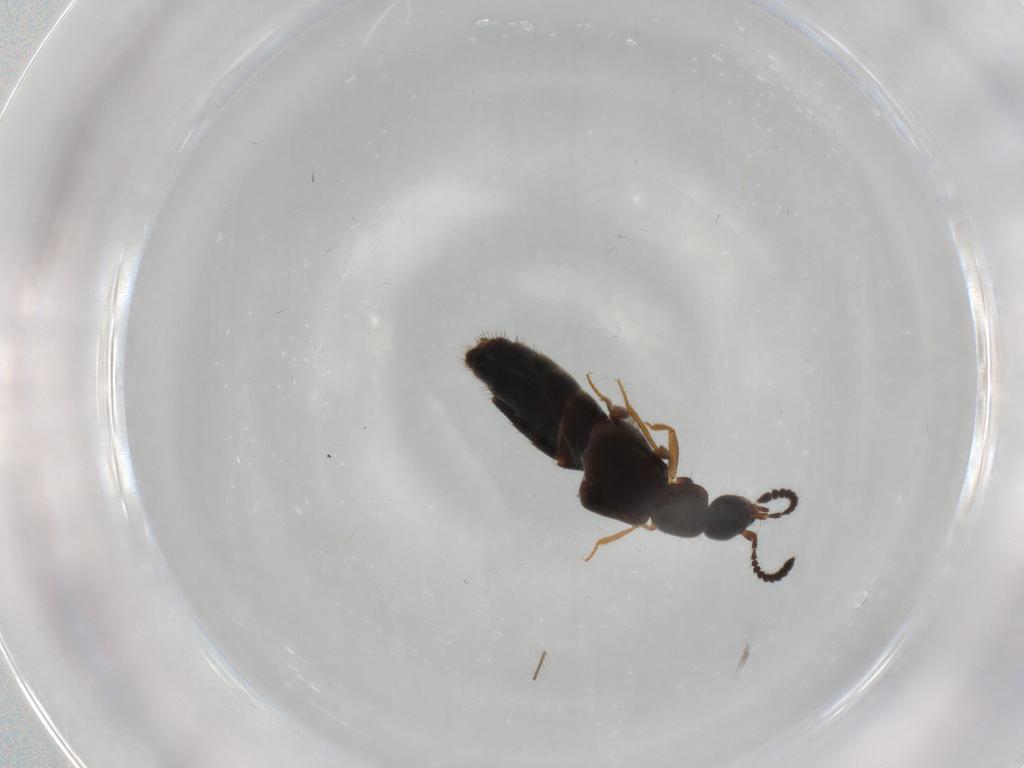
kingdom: Animalia
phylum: Arthropoda
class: Insecta
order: Coleoptera
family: Staphylinidae
